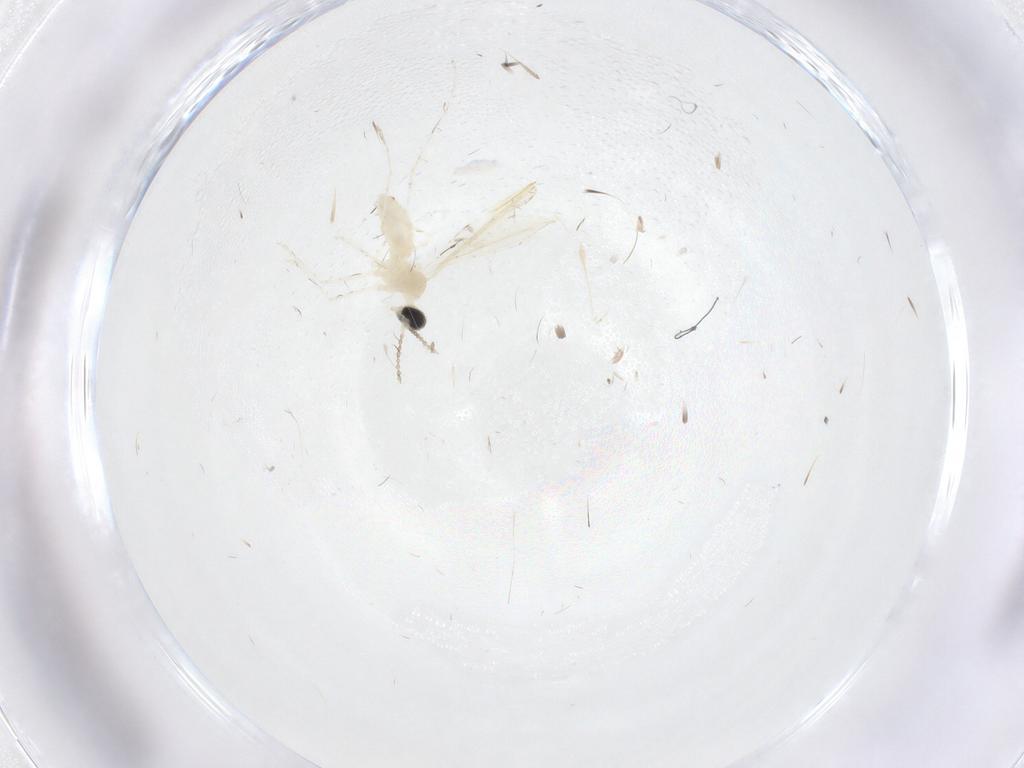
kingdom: Animalia
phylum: Arthropoda
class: Insecta
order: Diptera
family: Cecidomyiidae
